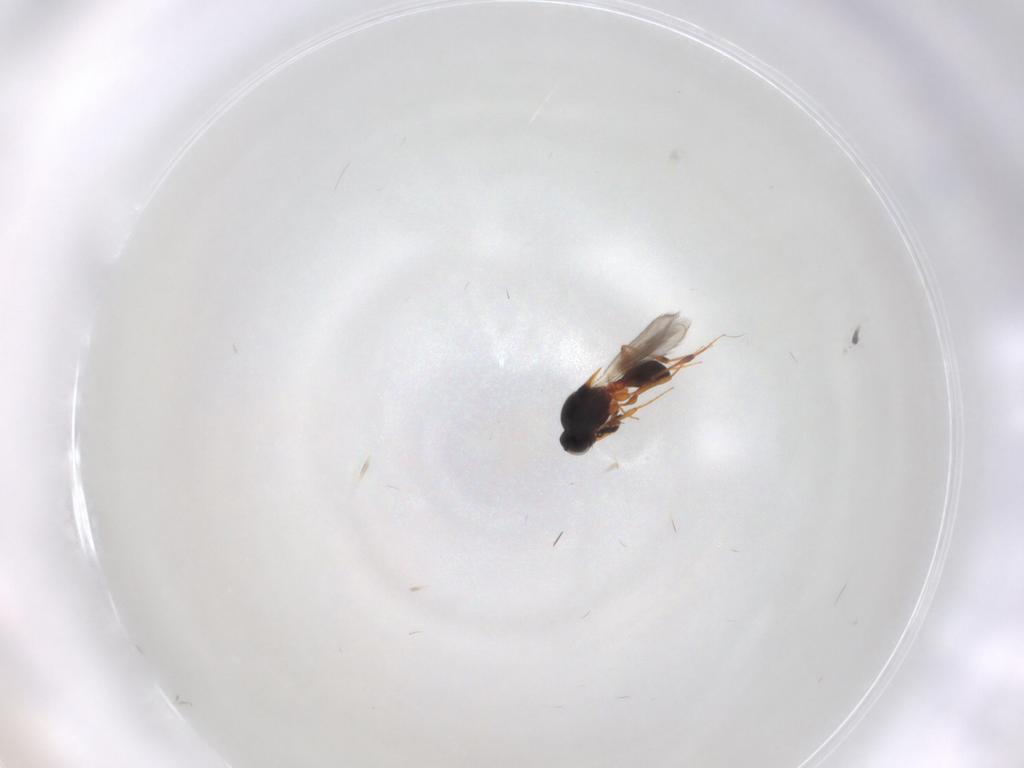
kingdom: Animalia
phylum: Arthropoda
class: Insecta
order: Hymenoptera
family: Platygastridae
